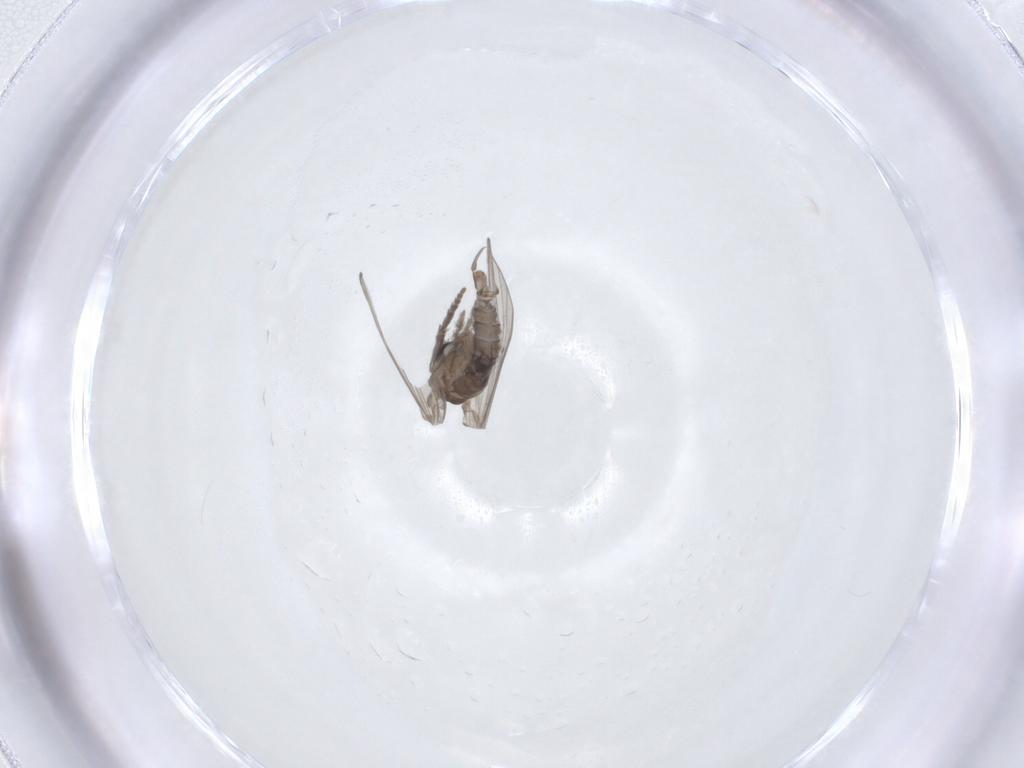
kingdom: Animalia
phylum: Arthropoda
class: Insecta
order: Diptera
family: Psychodidae
